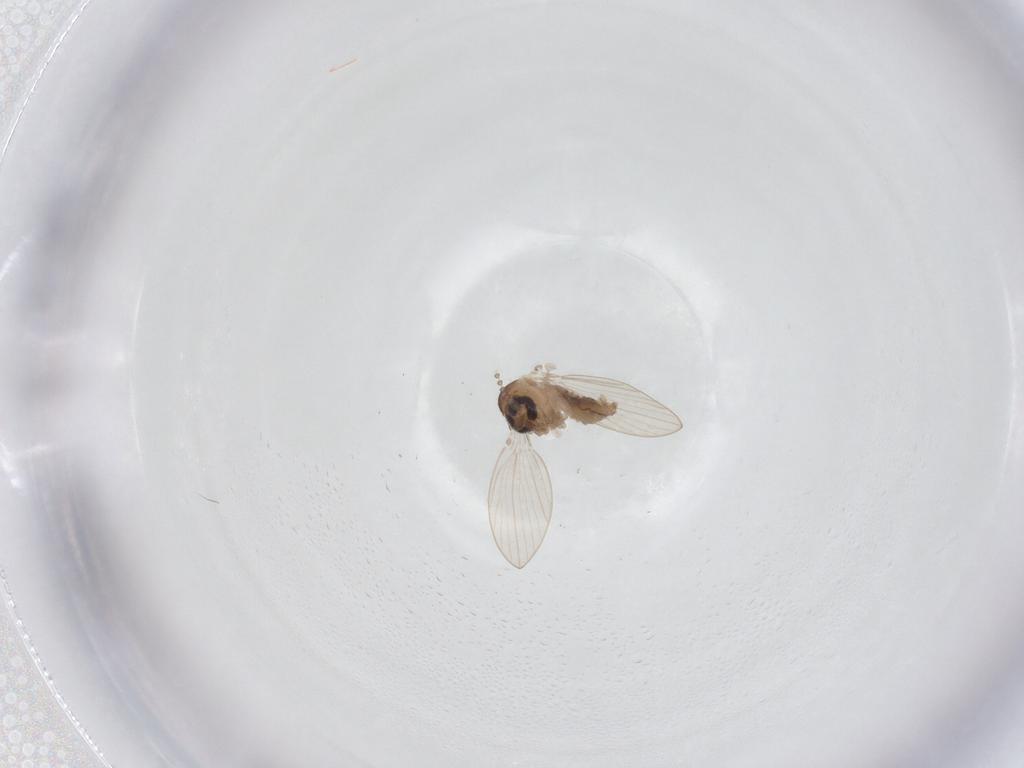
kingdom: Animalia
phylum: Arthropoda
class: Insecta
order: Diptera
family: Psychodidae
